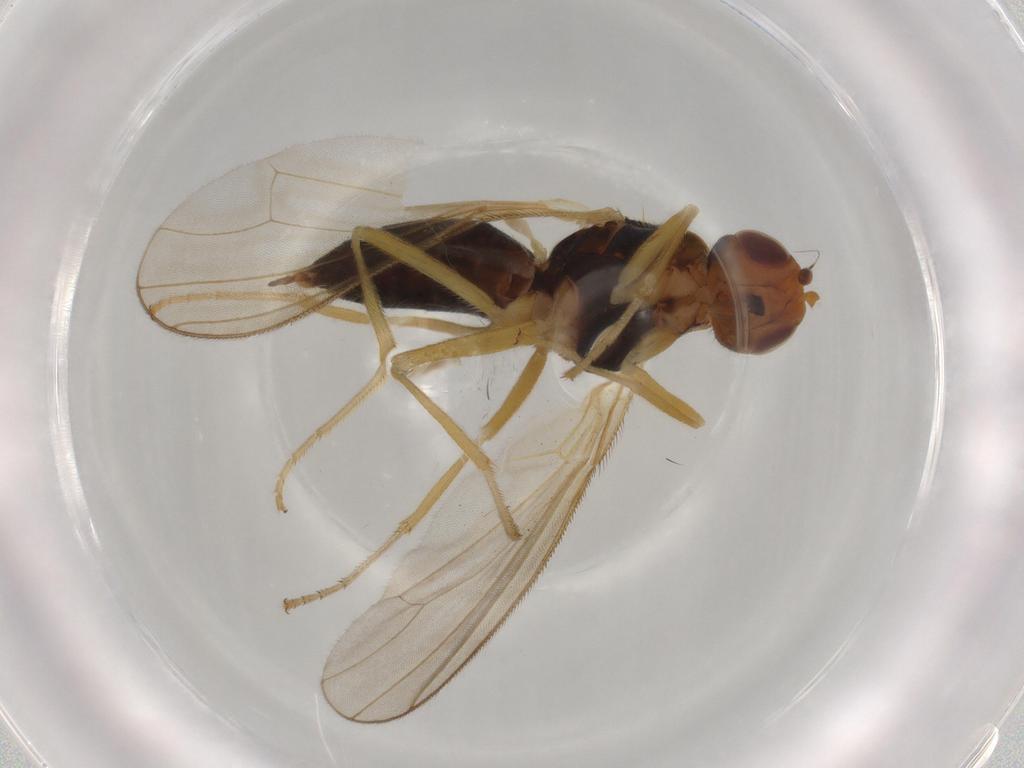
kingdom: Animalia
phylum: Arthropoda
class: Insecta
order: Diptera
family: Psilidae
